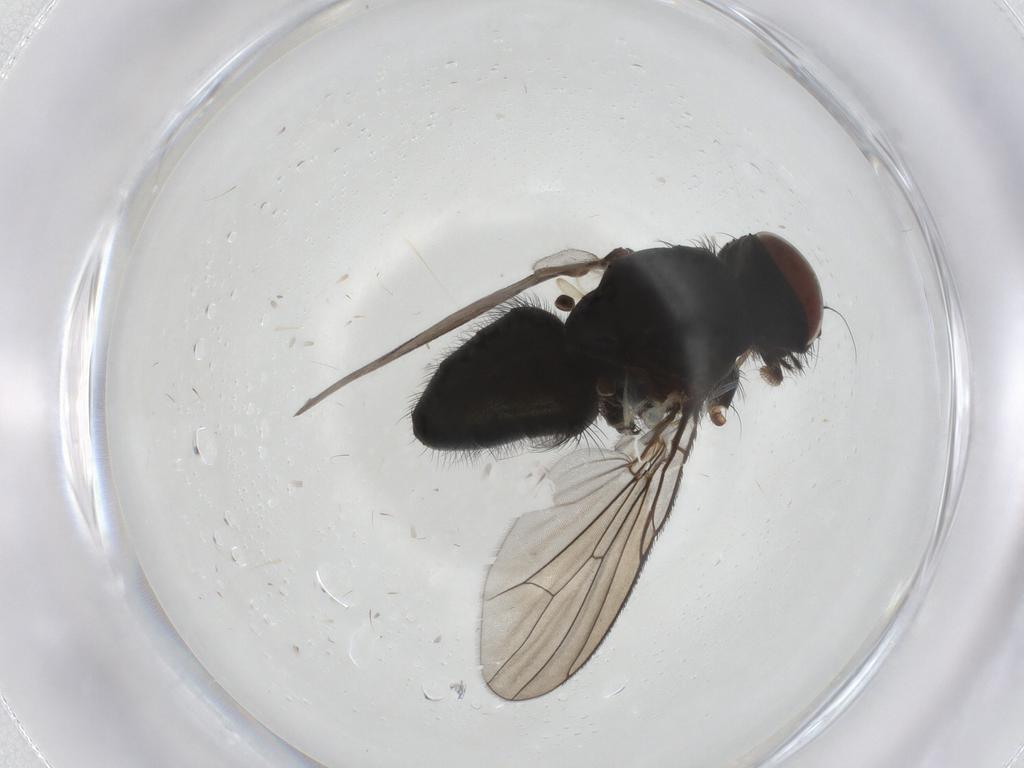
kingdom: Animalia
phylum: Arthropoda
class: Insecta
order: Diptera
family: Muscidae
